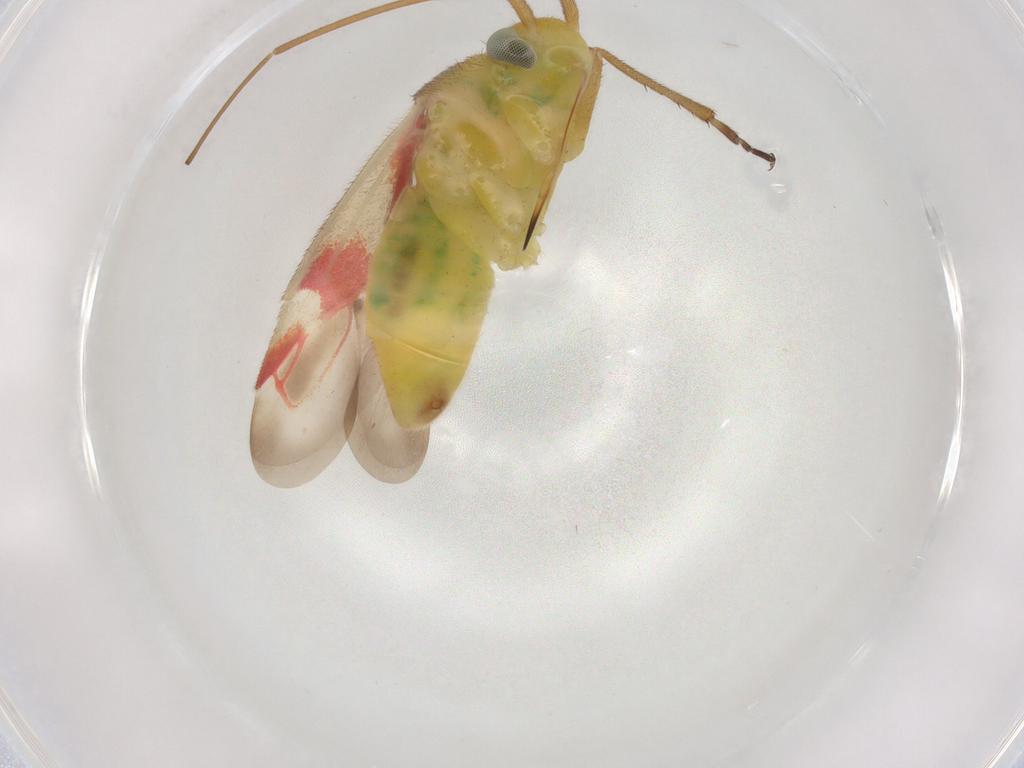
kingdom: Animalia
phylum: Arthropoda
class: Insecta
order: Hemiptera
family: Miridae
